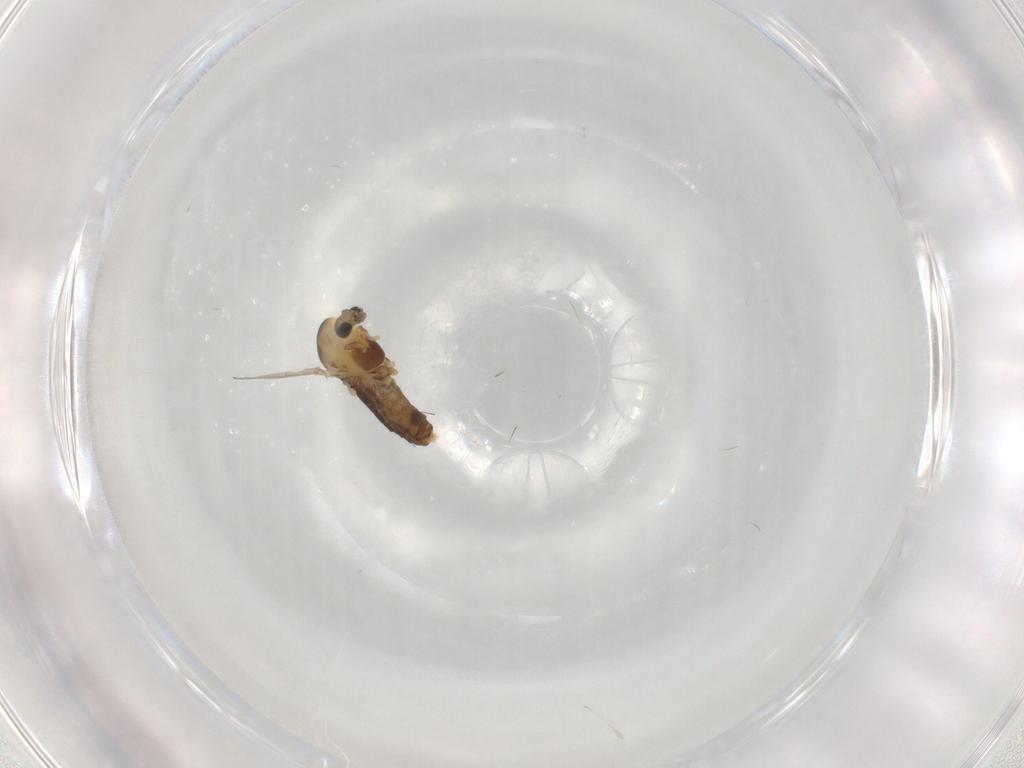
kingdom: Animalia
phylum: Arthropoda
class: Insecta
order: Diptera
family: Chironomidae
